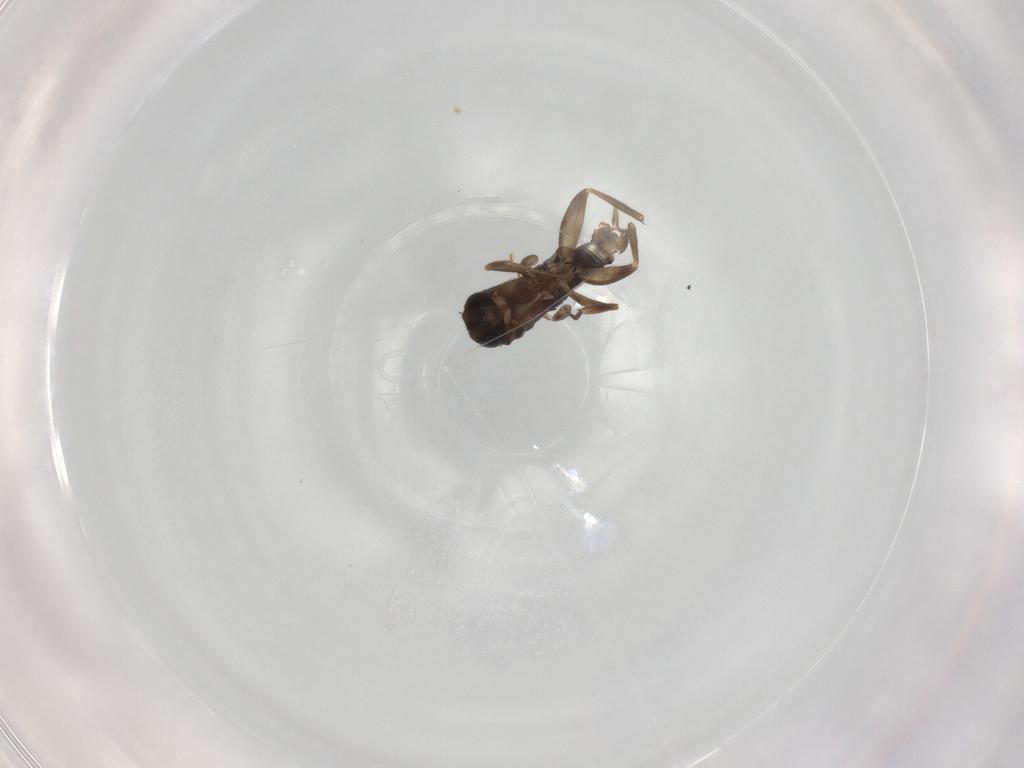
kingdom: Animalia
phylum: Arthropoda
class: Insecta
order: Diptera
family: Phoridae
